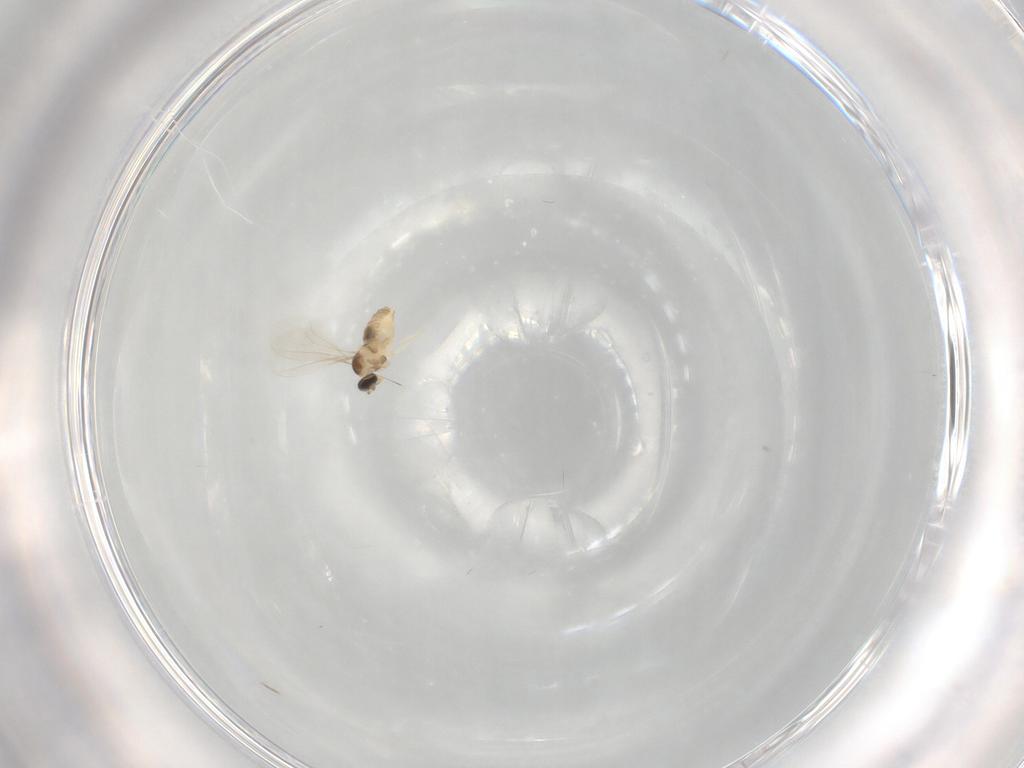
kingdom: Animalia
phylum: Arthropoda
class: Insecta
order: Diptera
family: Cecidomyiidae
